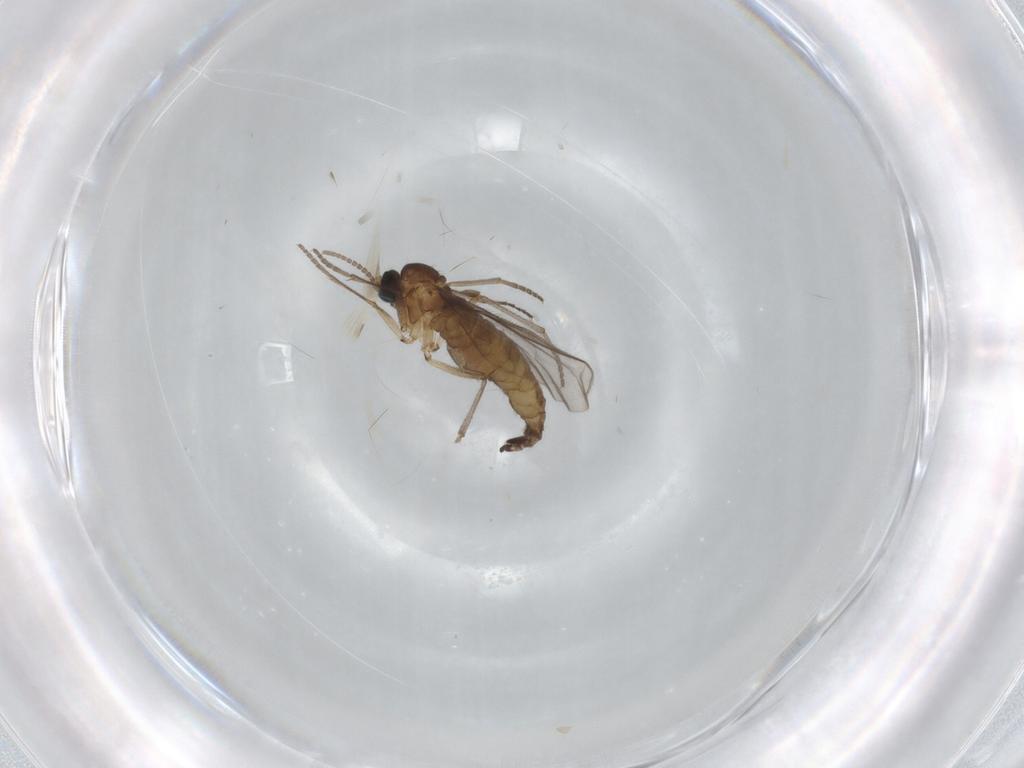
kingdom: Animalia
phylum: Arthropoda
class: Insecta
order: Diptera
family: Sciaridae
